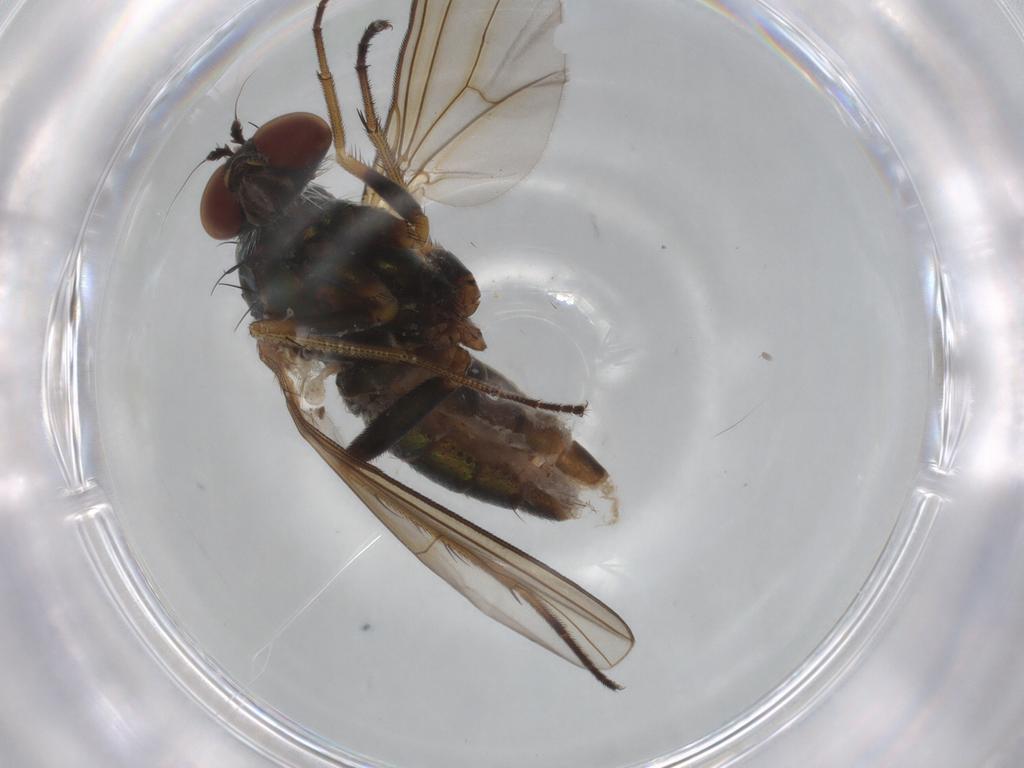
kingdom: Animalia
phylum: Arthropoda
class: Insecta
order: Diptera
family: Dolichopodidae
